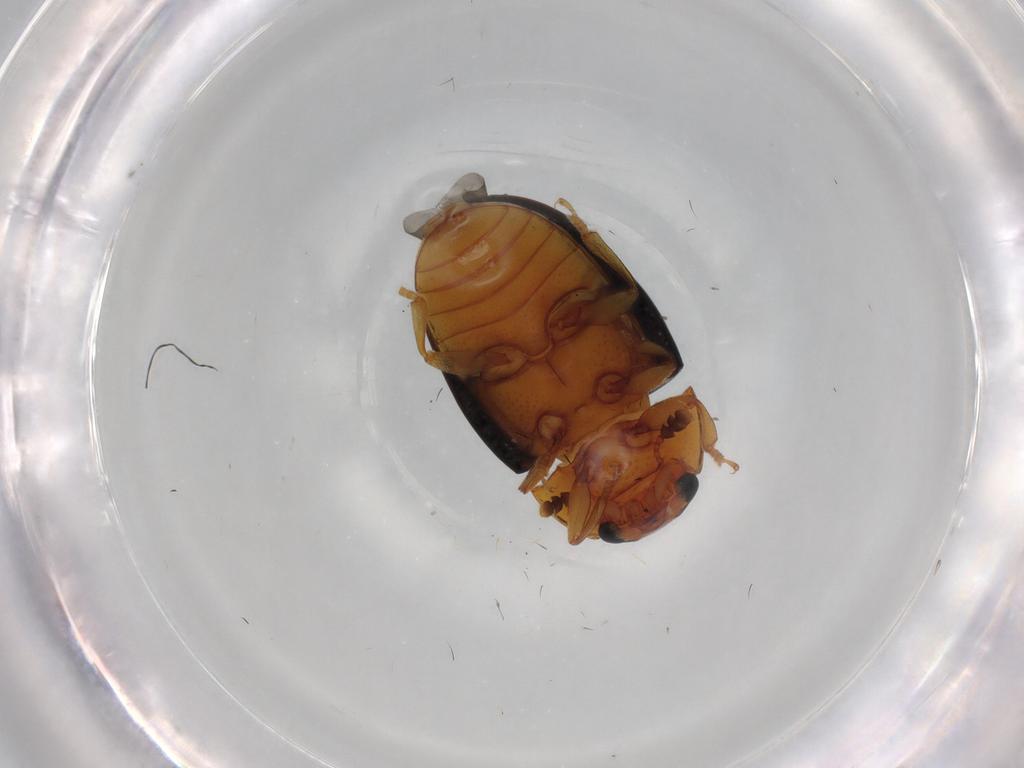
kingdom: Animalia
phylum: Arthropoda
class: Insecta
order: Coleoptera
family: Erotylidae
